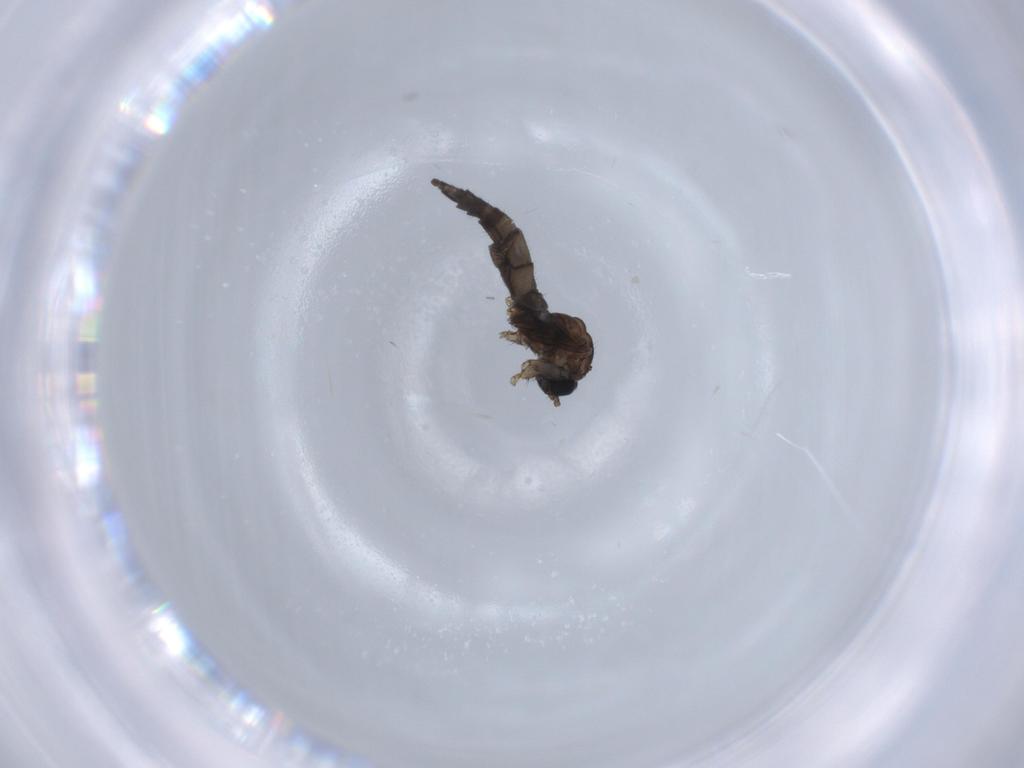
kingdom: Animalia
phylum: Arthropoda
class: Insecta
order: Diptera
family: Sciaridae
